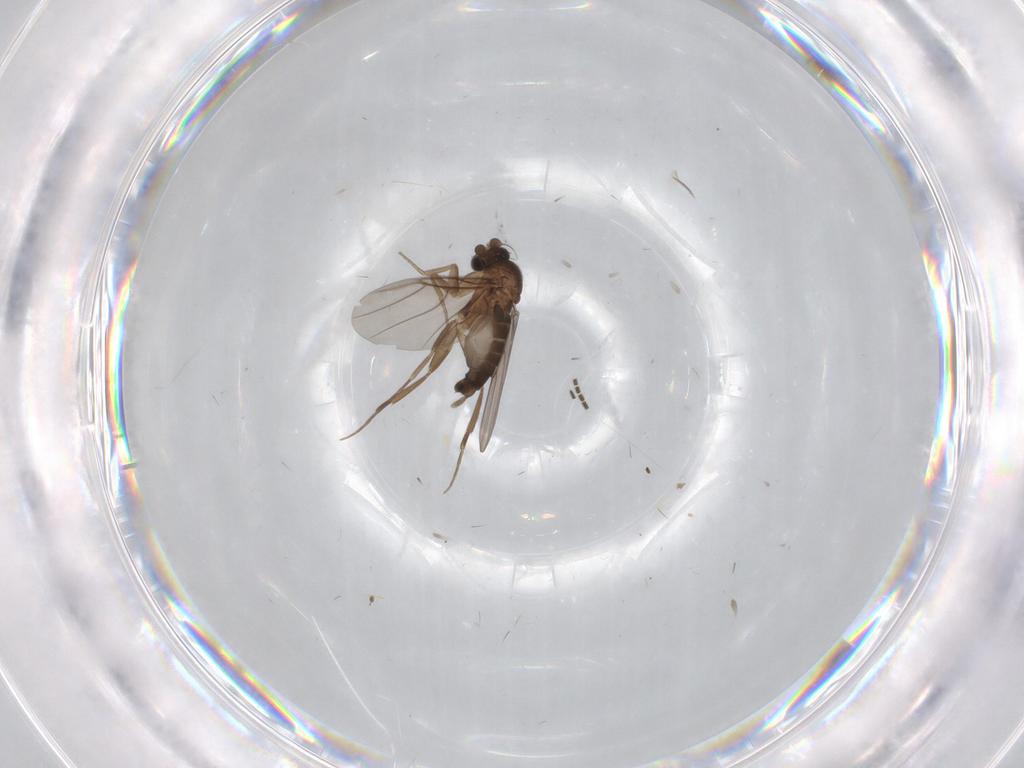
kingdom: Animalia
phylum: Arthropoda
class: Insecta
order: Diptera
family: Phoridae
